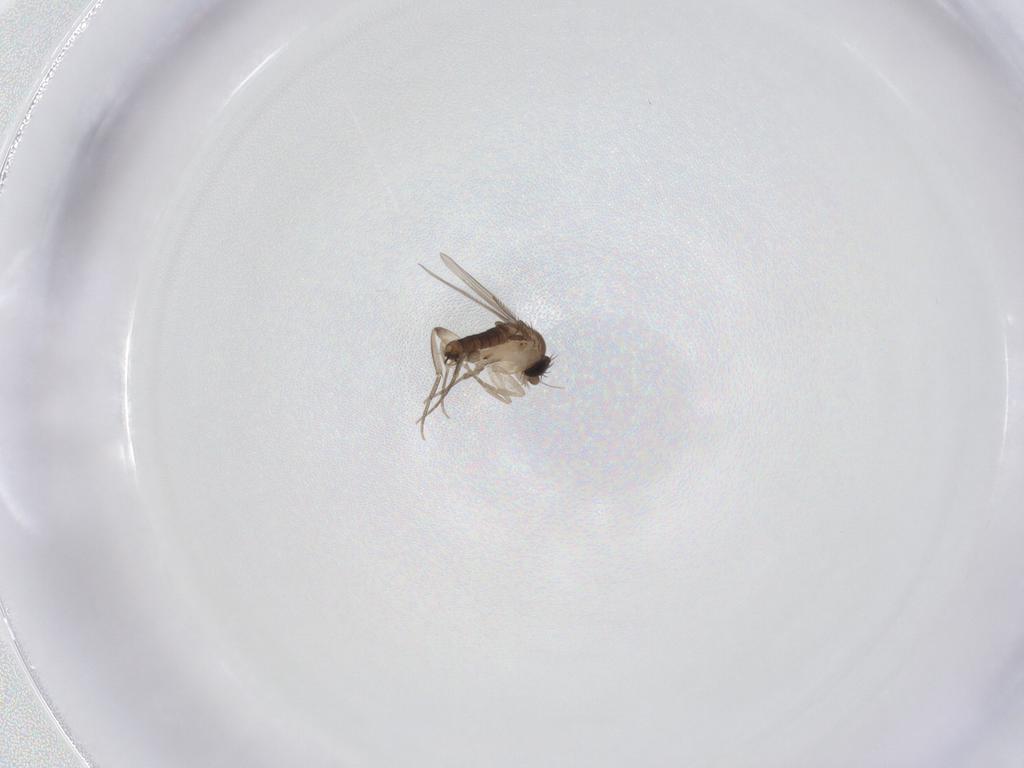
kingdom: Animalia
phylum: Arthropoda
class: Insecta
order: Diptera
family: Phoridae
